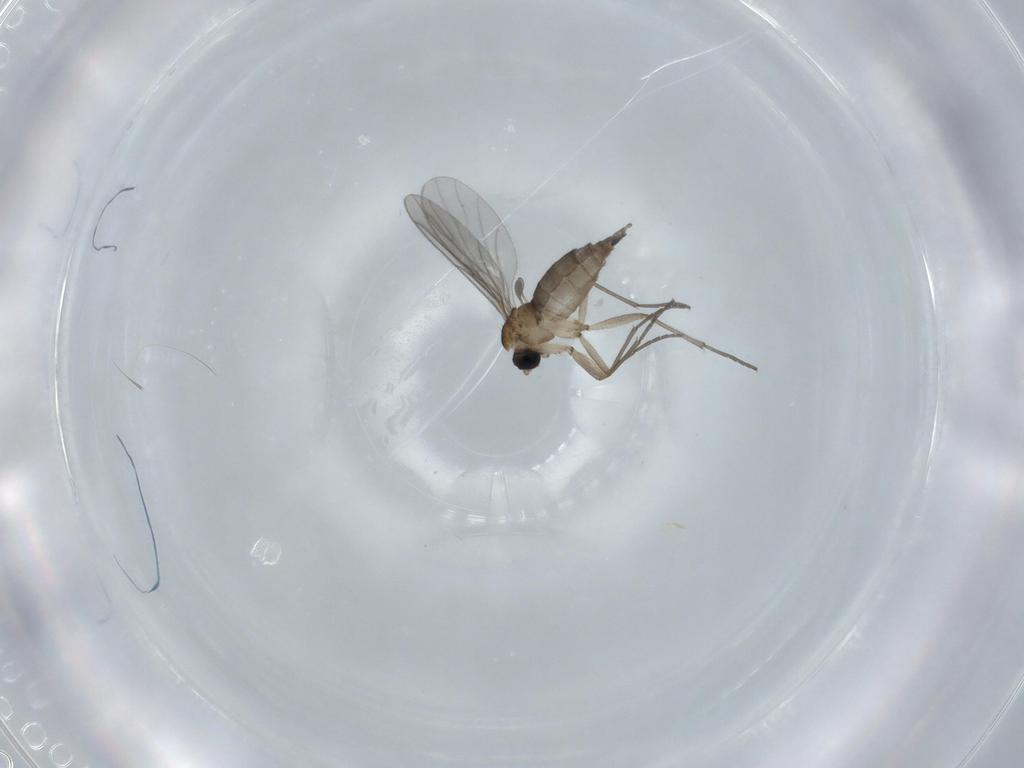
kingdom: Animalia
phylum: Arthropoda
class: Insecta
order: Diptera
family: Sciaridae
